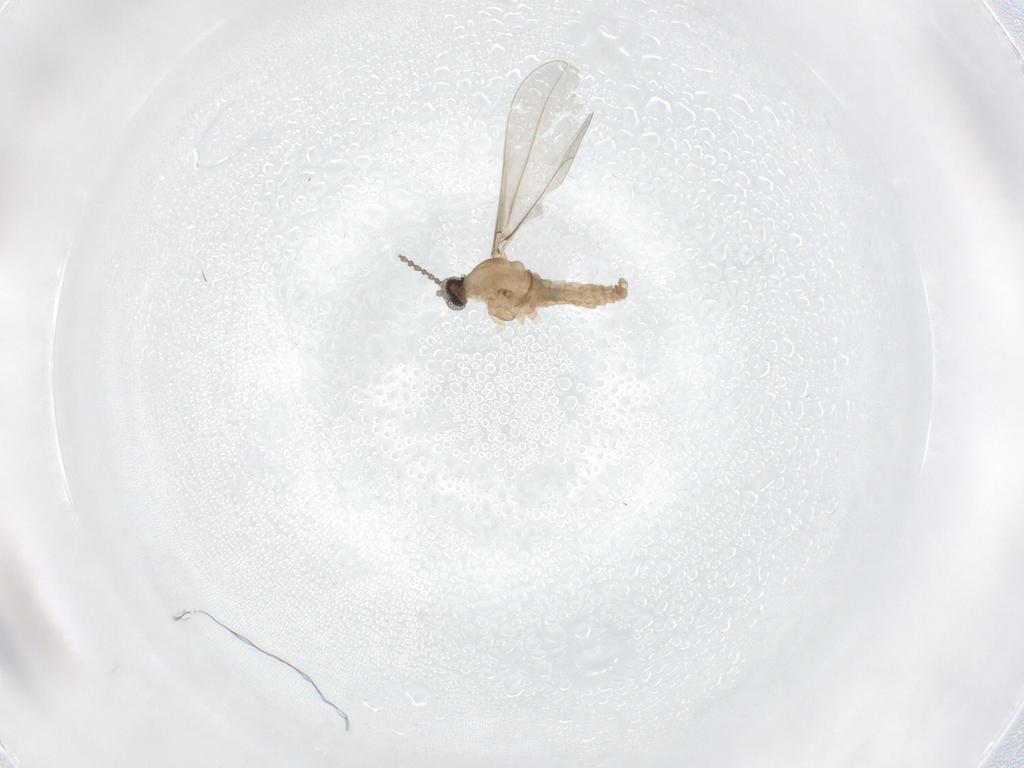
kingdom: Animalia
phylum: Arthropoda
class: Insecta
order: Diptera
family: Cecidomyiidae
